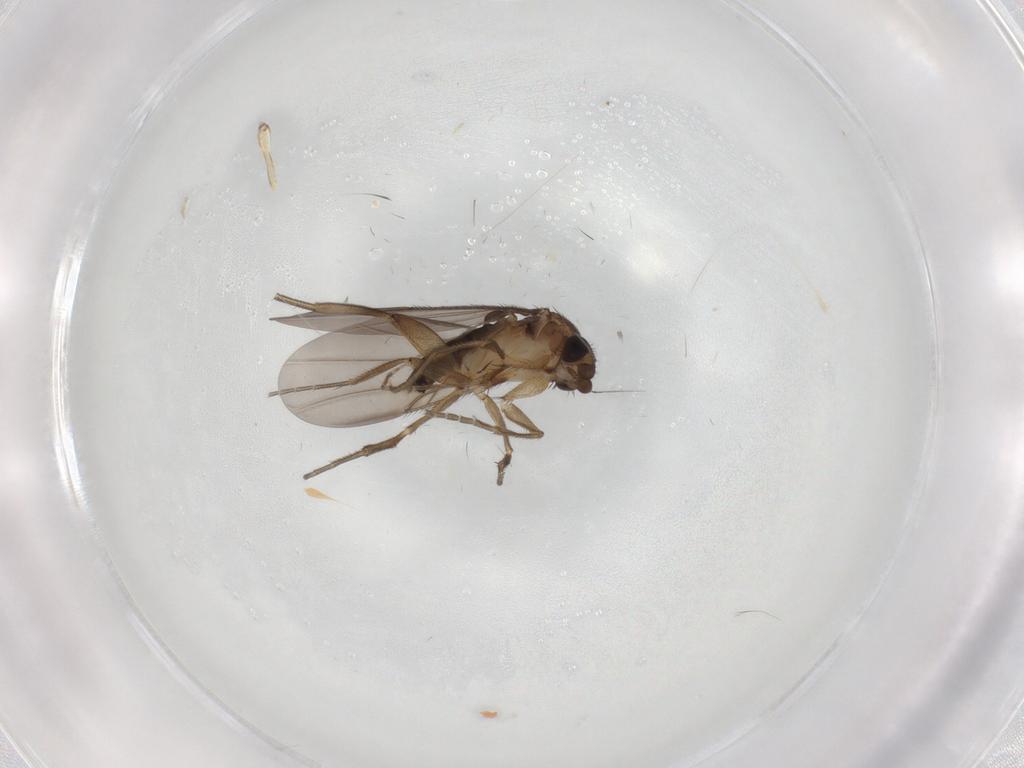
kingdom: Animalia
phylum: Arthropoda
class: Insecta
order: Diptera
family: Phoridae
